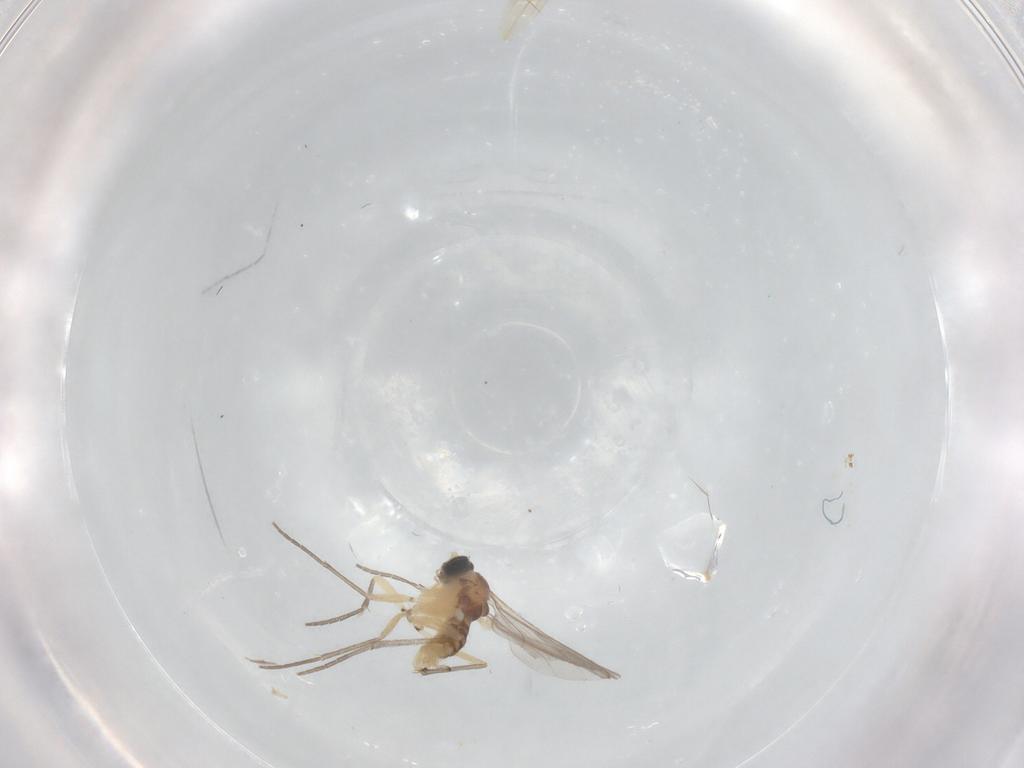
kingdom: Animalia
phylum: Arthropoda
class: Insecta
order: Diptera
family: Sciaridae
